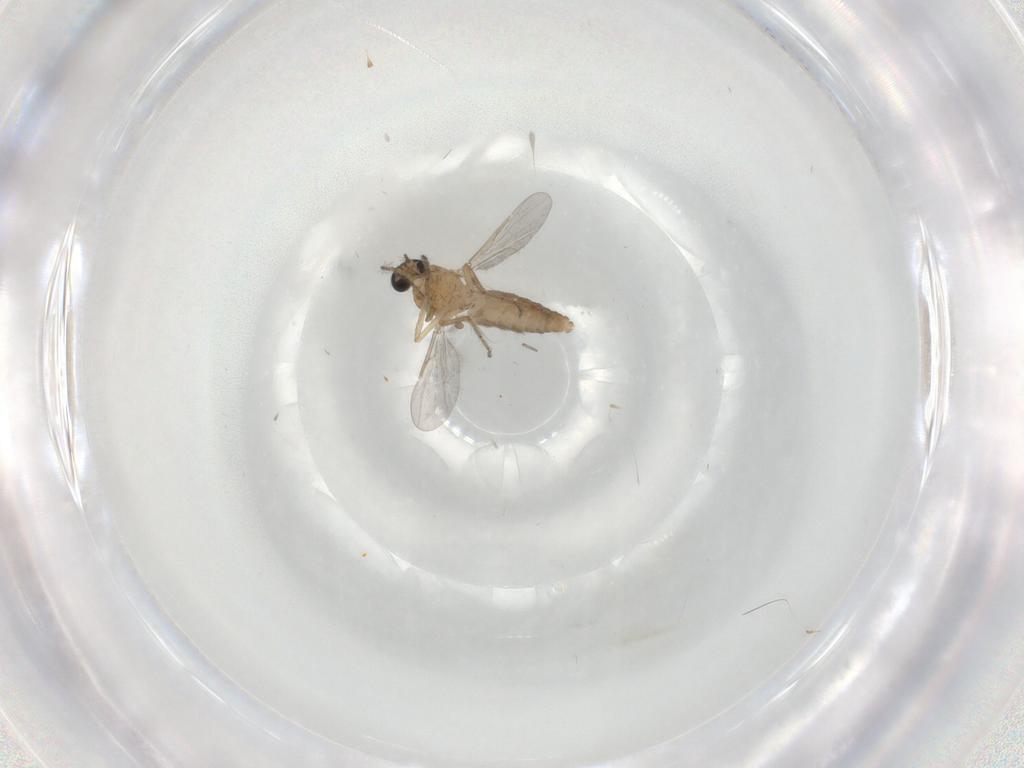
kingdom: Animalia
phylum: Arthropoda
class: Insecta
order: Diptera
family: Ceratopogonidae
